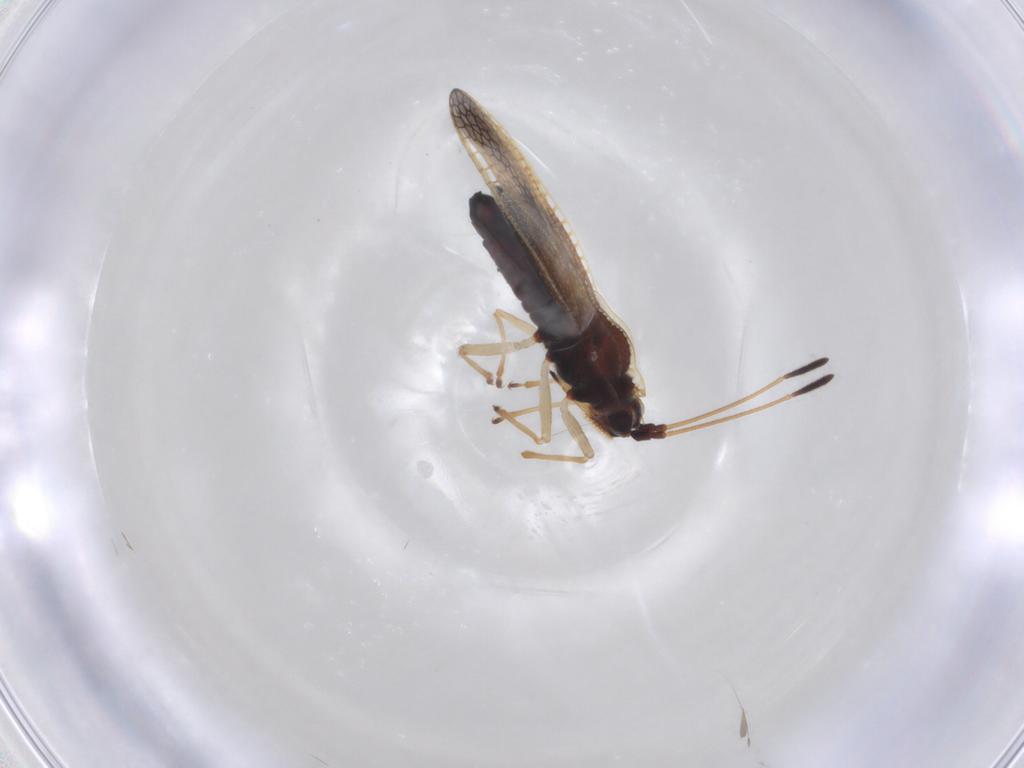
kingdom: Animalia
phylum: Arthropoda
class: Insecta
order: Hemiptera
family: Tingidae
